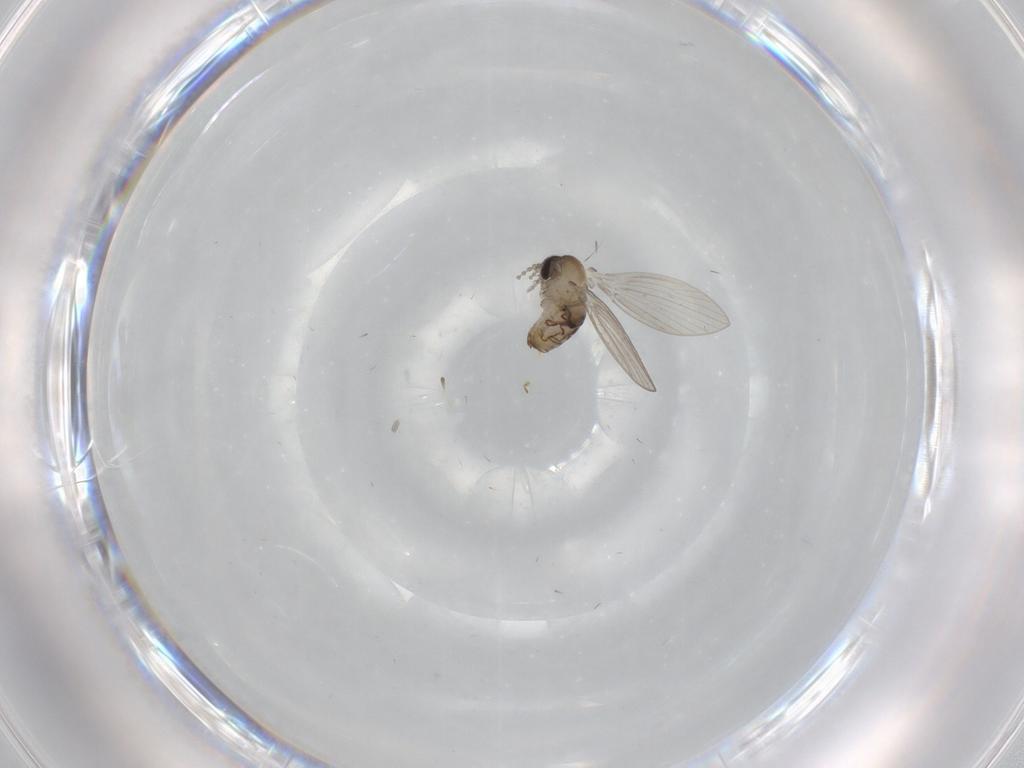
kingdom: Animalia
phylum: Arthropoda
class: Insecta
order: Diptera
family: Psychodidae
